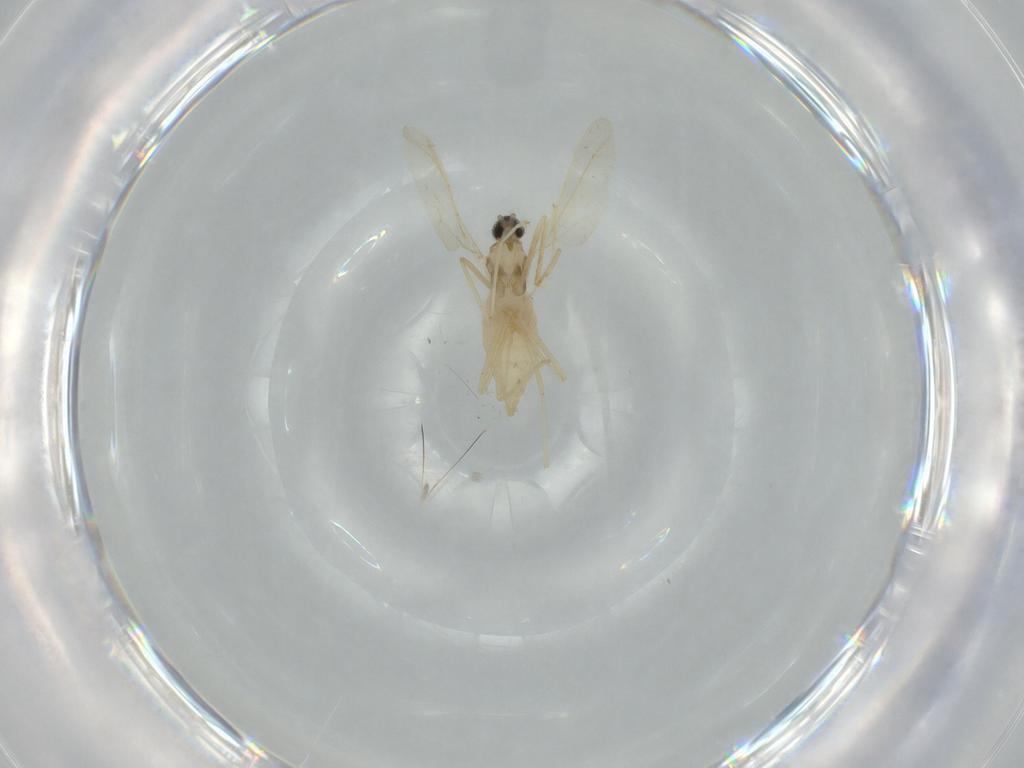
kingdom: Animalia
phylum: Arthropoda
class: Insecta
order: Diptera
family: Cecidomyiidae
